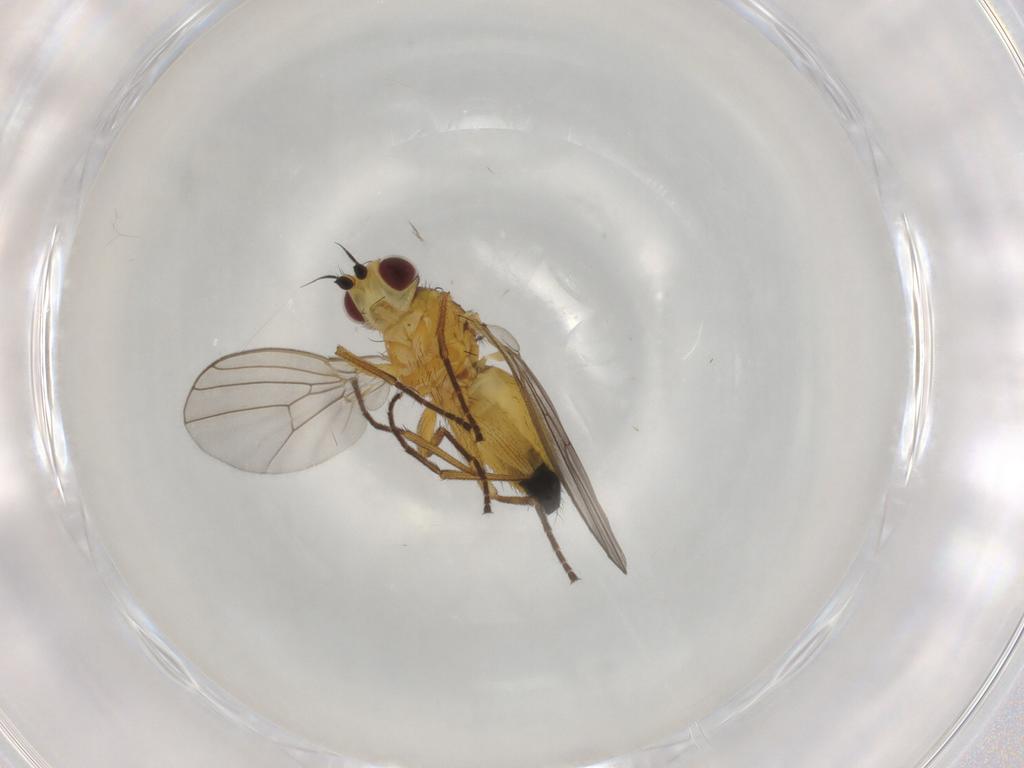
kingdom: Animalia
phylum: Arthropoda
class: Insecta
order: Diptera
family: Agromyzidae
